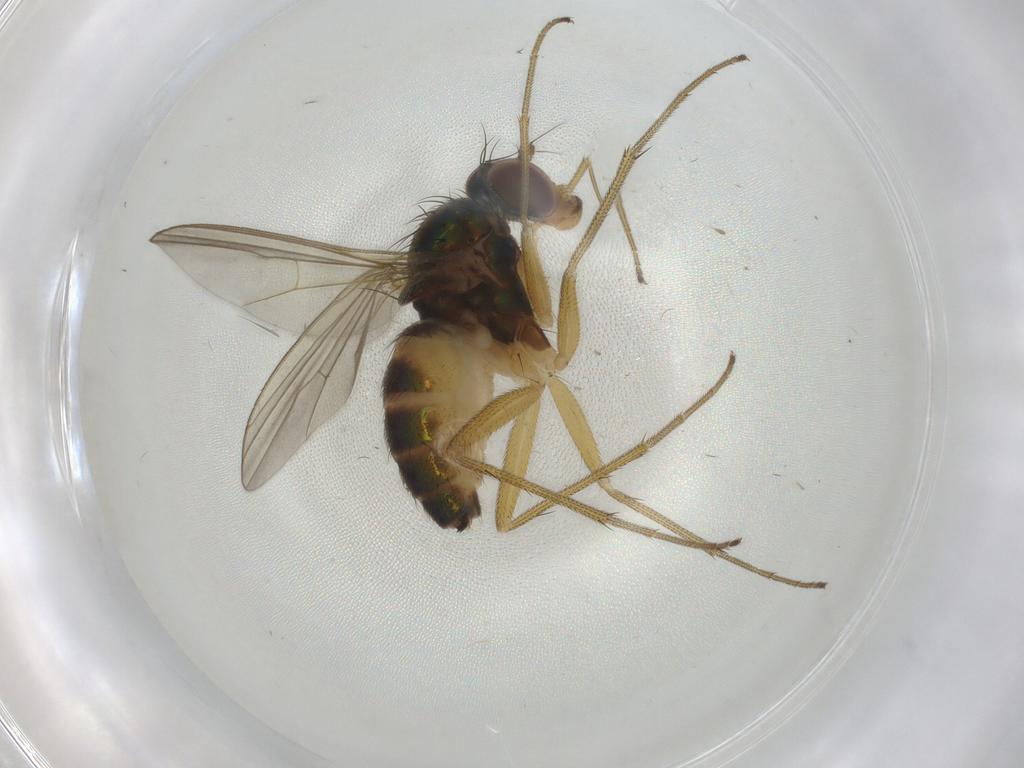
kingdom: Animalia
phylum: Arthropoda
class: Insecta
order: Diptera
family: Dolichopodidae
